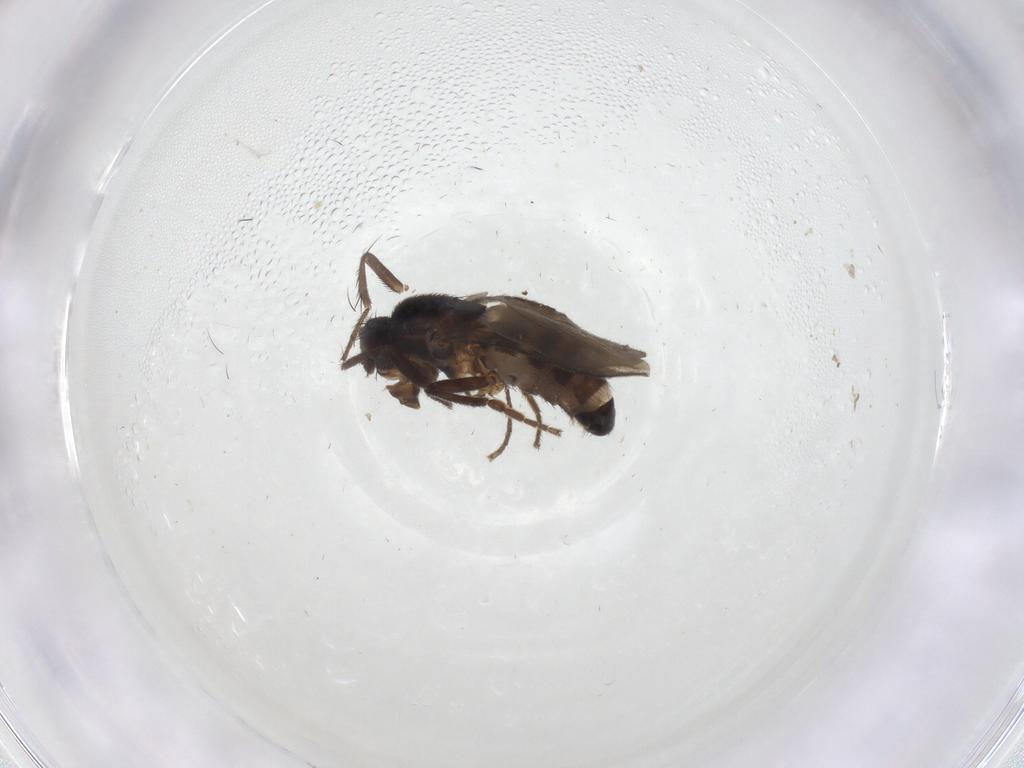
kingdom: Animalia
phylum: Arthropoda
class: Insecta
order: Diptera
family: Sphaeroceridae
